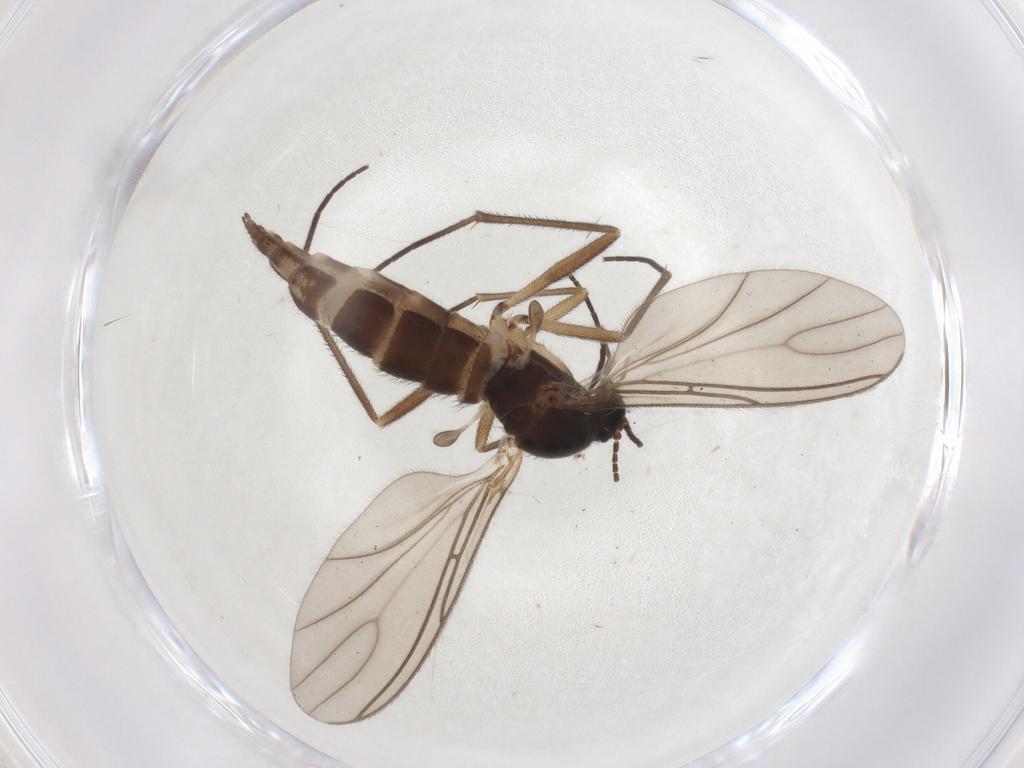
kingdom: Animalia
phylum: Arthropoda
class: Insecta
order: Diptera
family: Sciaridae
